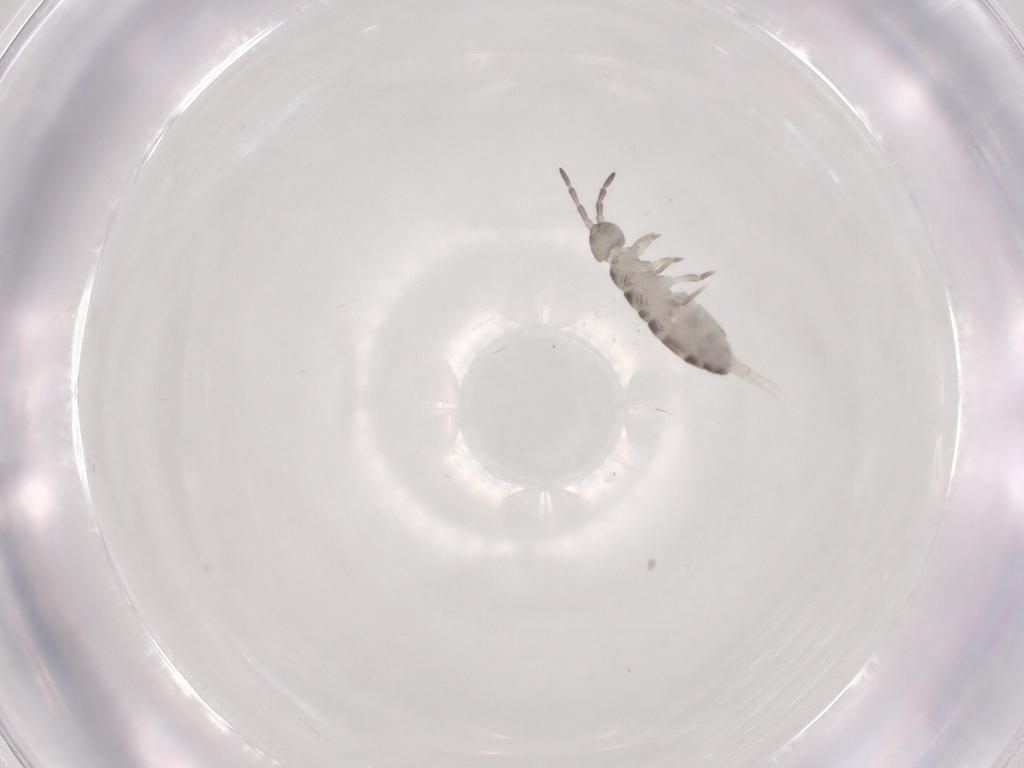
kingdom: Animalia
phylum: Arthropoda
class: Collembola
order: Entomobryomorpha
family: Isotomidae
